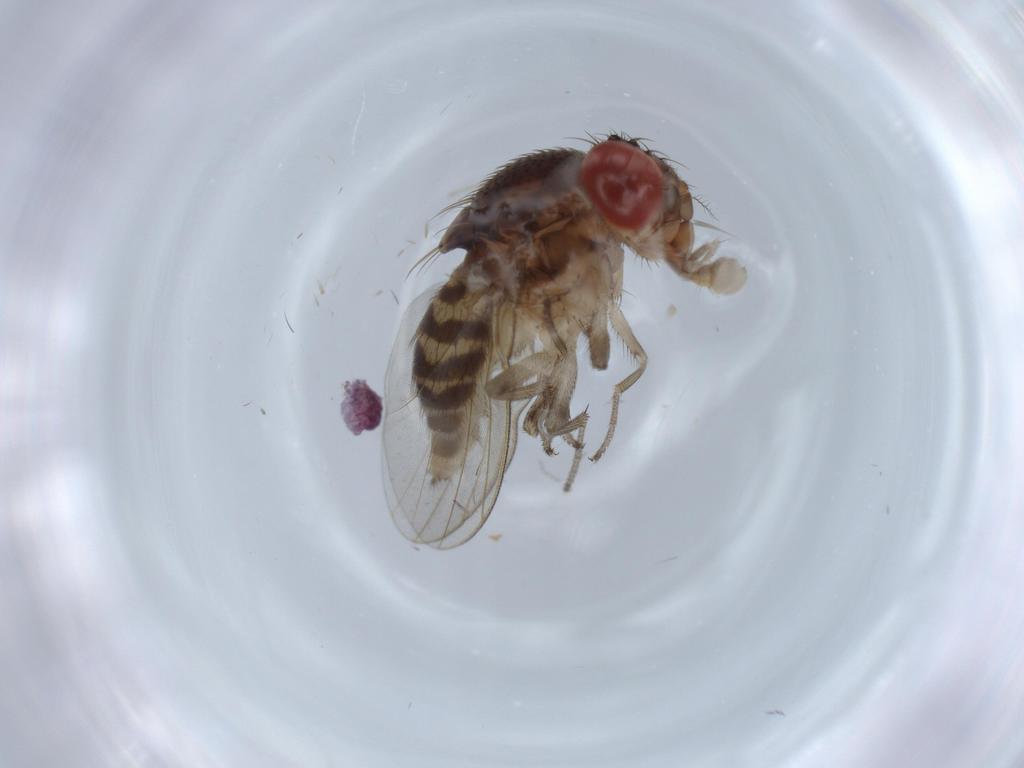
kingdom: Animalia
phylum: Arthropoda
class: Insecta
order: Diptera
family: Drosophilidae
